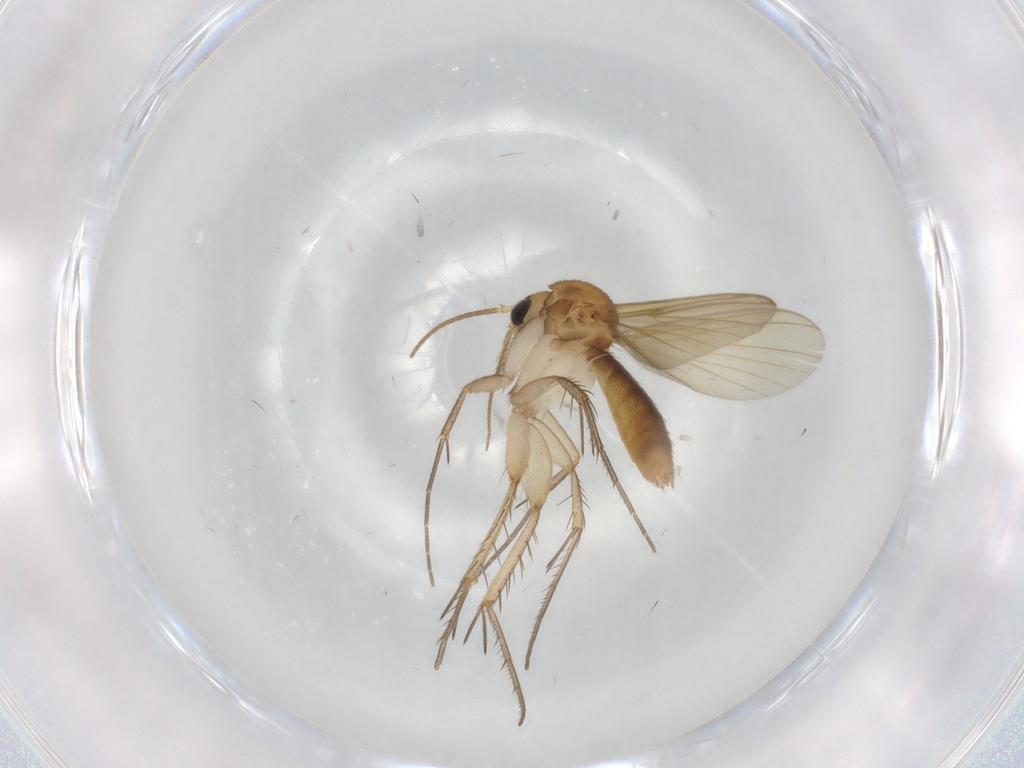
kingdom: Animalia
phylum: Arthropoda
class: Insecta
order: Diptera
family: Mycetophilidae
